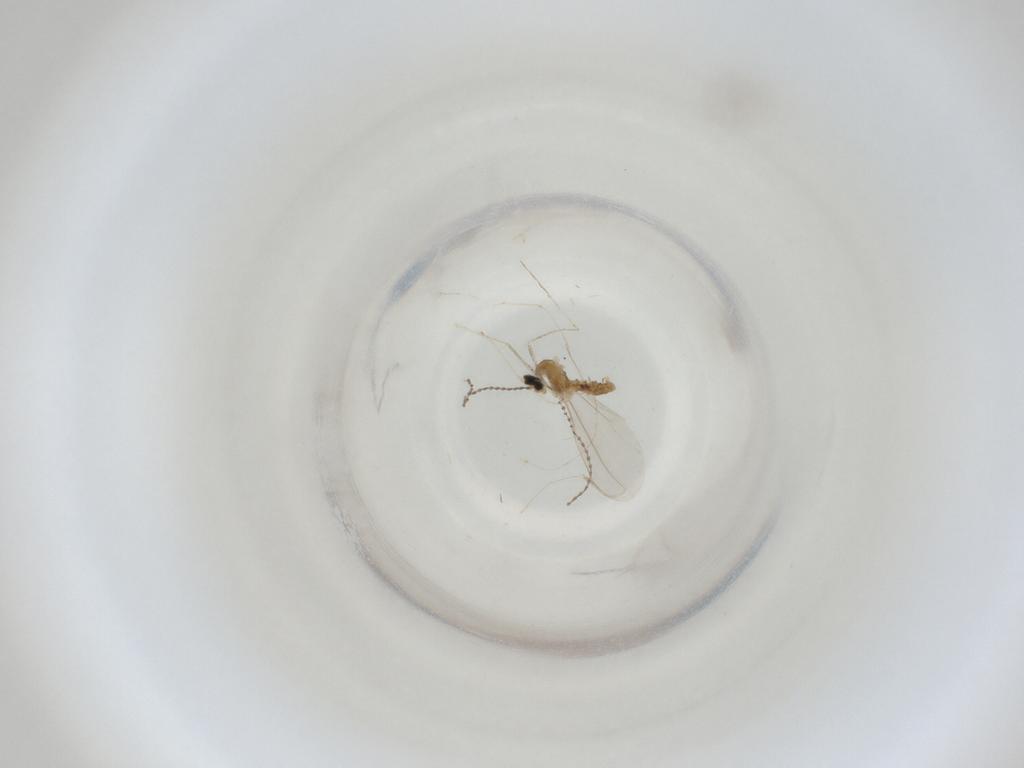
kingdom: Animalia
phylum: Arthropoda
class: Insecta
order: Diptera
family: Cecidomyiidae
